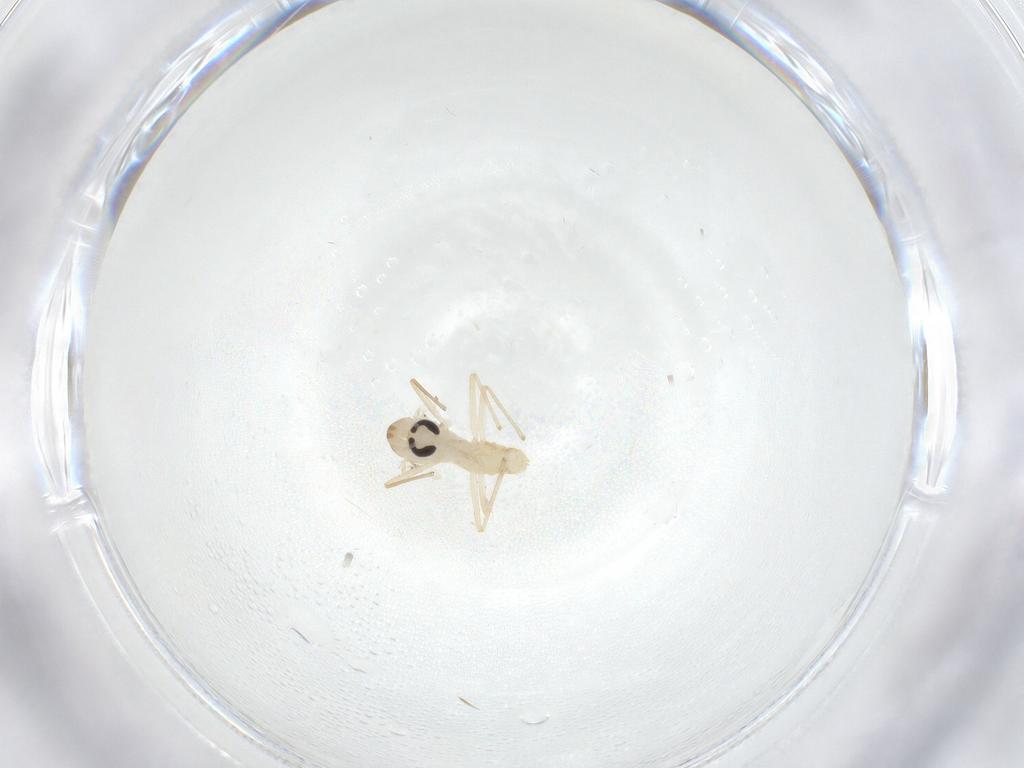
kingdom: Animalia
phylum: Arthropoda
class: Insecta
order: Diptera
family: Chironomidae
